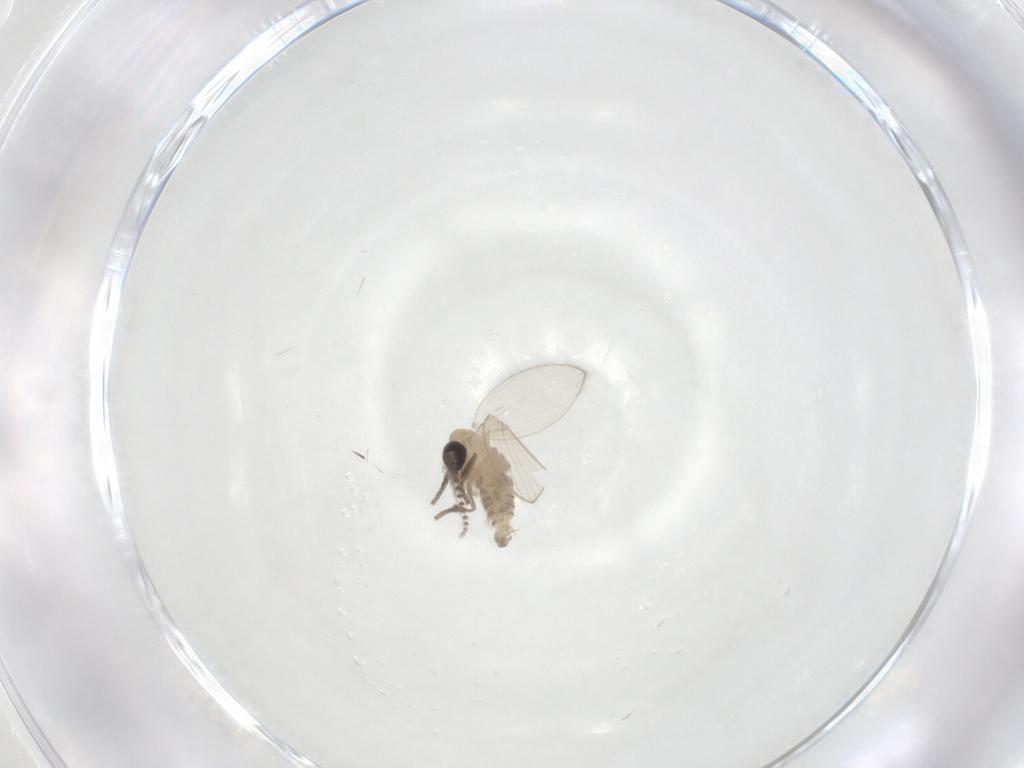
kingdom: Animalia
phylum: Arthropoda
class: Insecta
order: Diptera
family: Psychodidae
